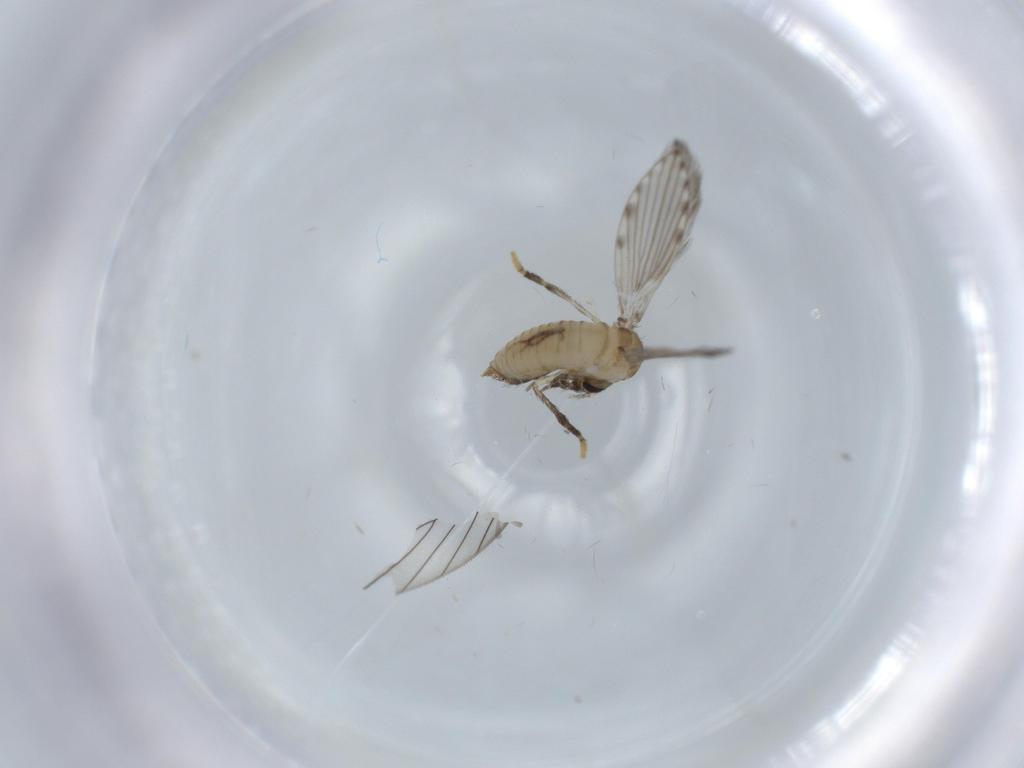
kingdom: Animalia
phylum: Arthropoda
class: Insecta
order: Diptera
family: Psychodidae
